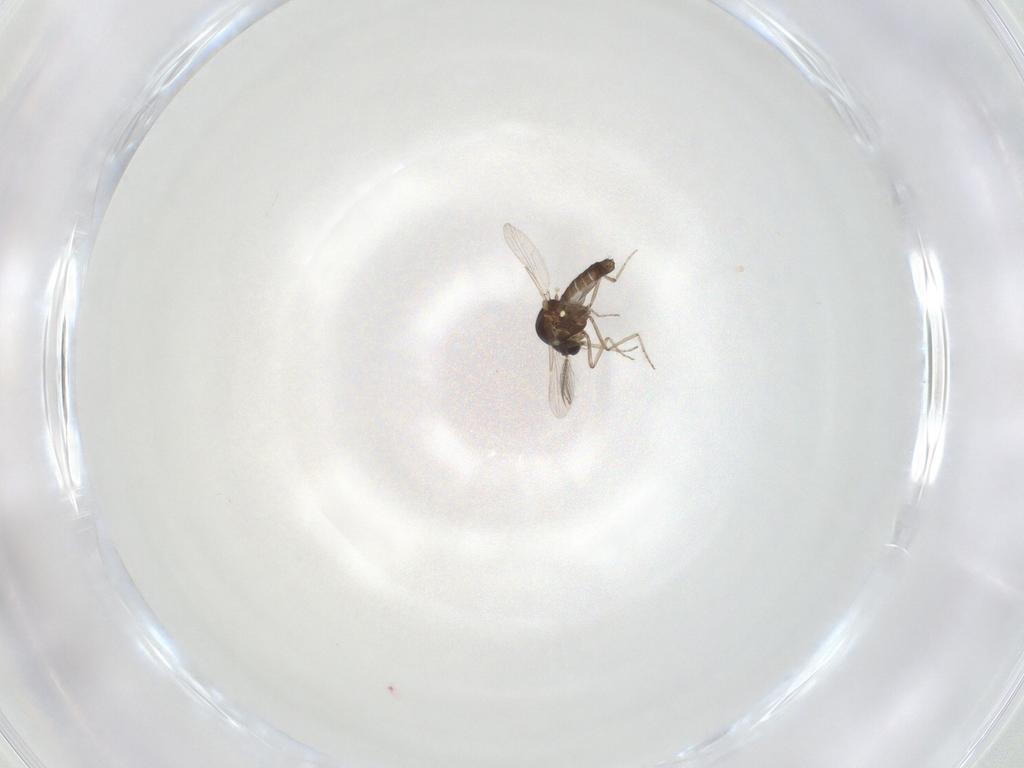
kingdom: Animalia
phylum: Arthropoda
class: Insecta
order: Diptera
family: Ceratopogonidae
